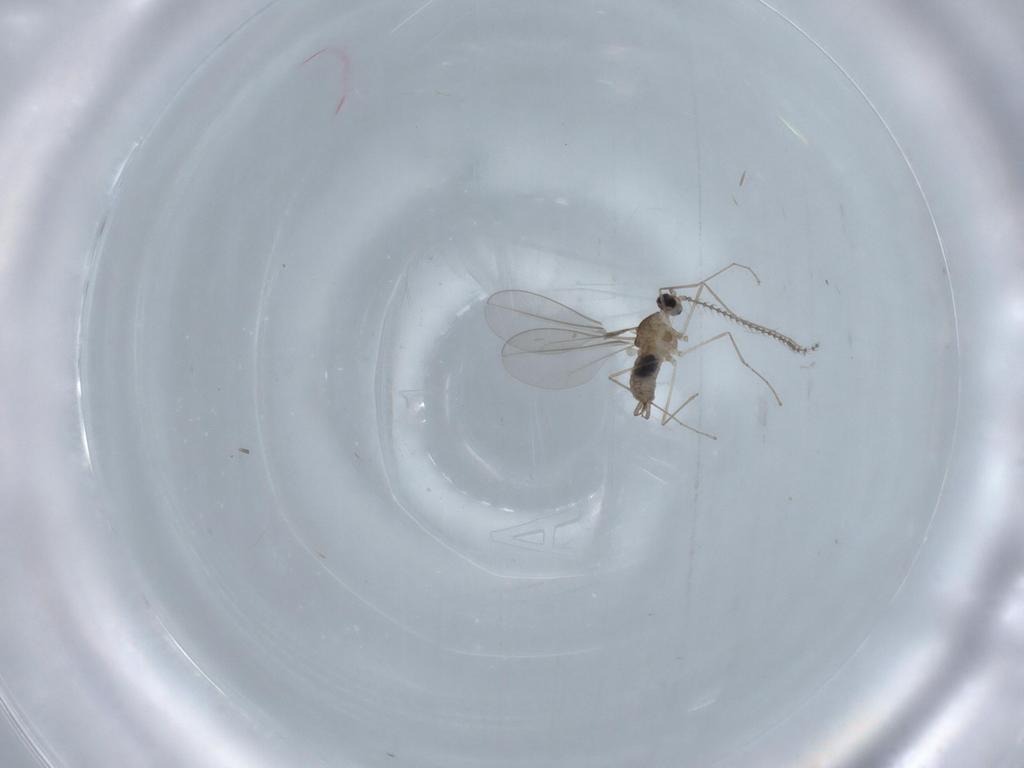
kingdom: Animalia
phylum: Arthropoda
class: Insecta
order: Diptera
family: Cecidomyiidae
